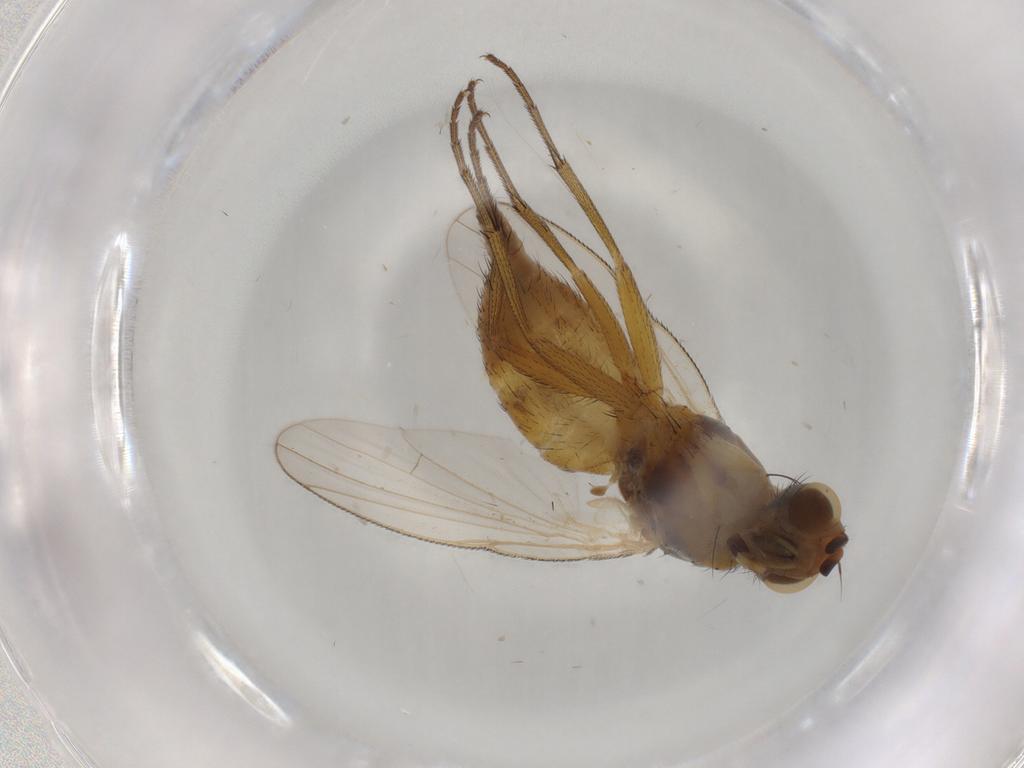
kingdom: Animalia
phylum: Arthropoda
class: Insecta
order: Diptera
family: Muscidae
